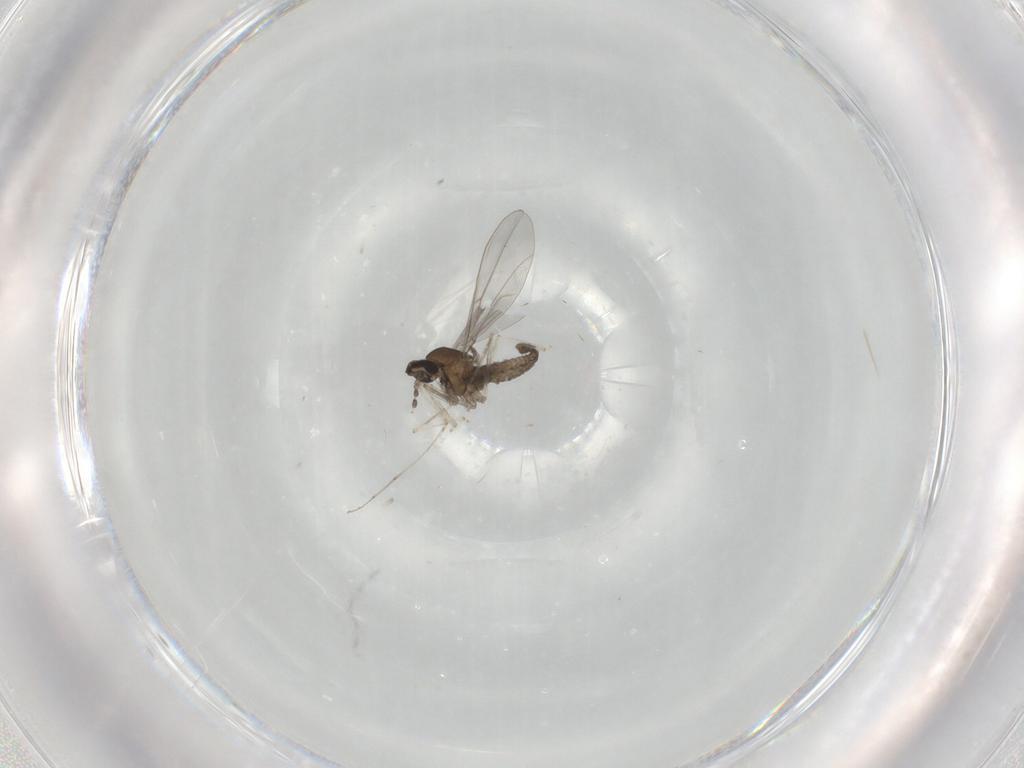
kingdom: Animalia
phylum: Arthropoda
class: Insecta
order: Diptera
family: Cecidomyiidae
